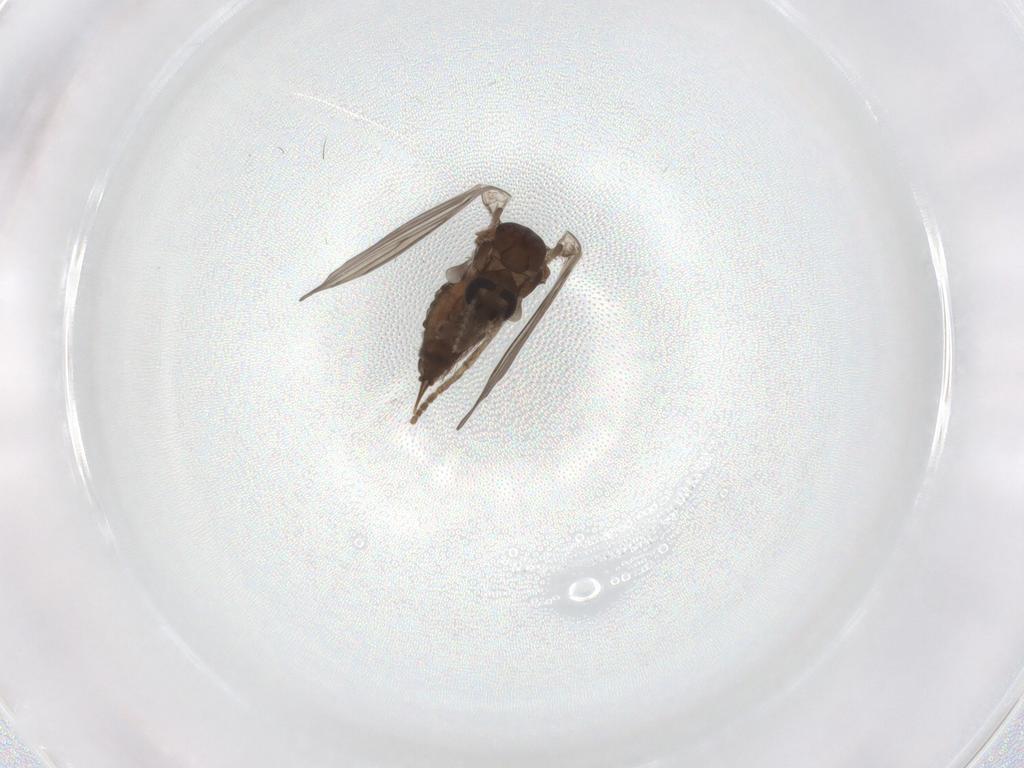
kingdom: Animalia
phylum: Arthropoda
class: Insecta
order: Diptera
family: Psychodidae
